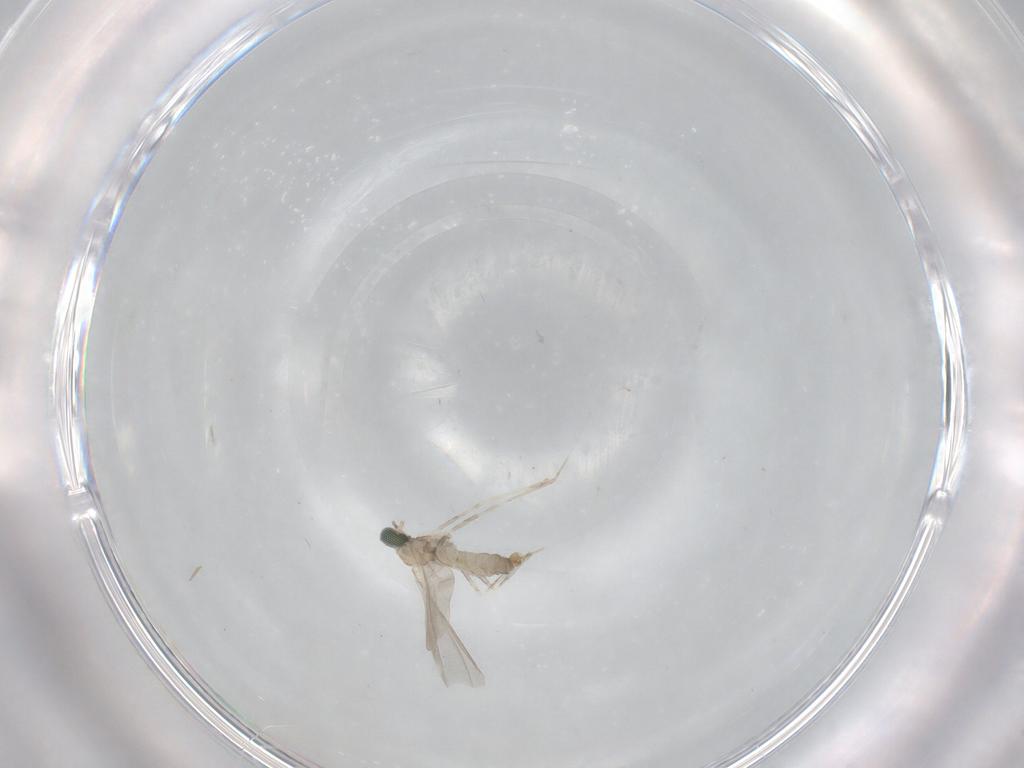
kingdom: Animalia
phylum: Arthropoda
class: Insecta
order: Diptera
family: Cecidomyiidae
